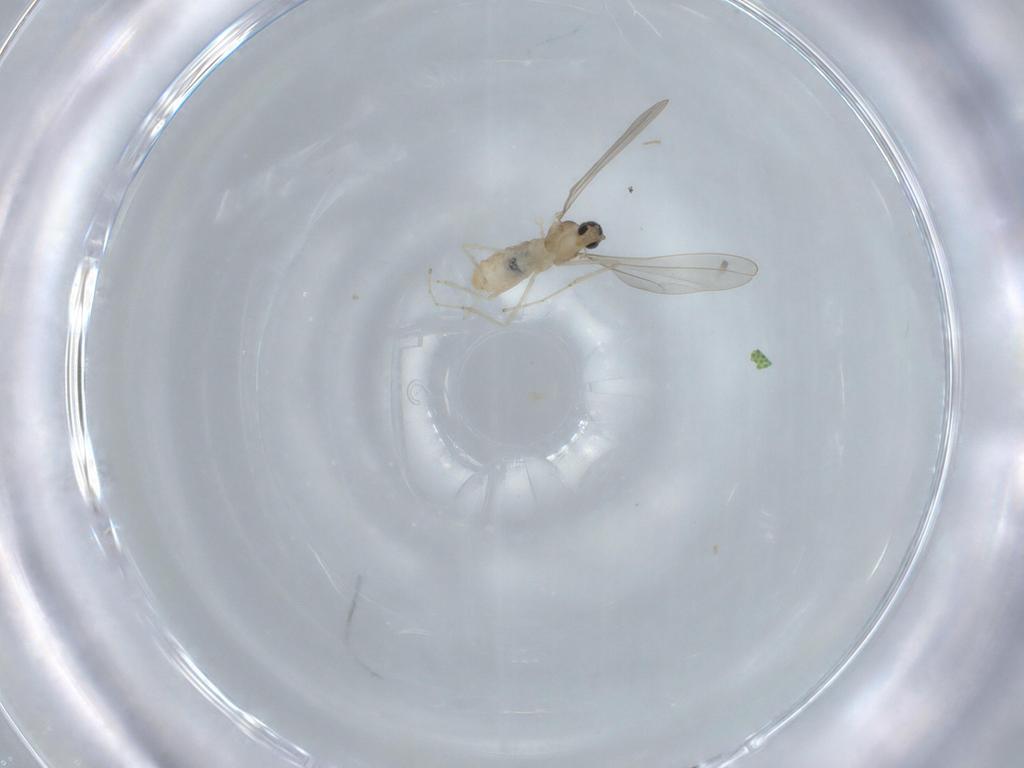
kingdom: Animalia
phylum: Arthropoda
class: Insecta
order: Diptera
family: Cecidomyiidae
